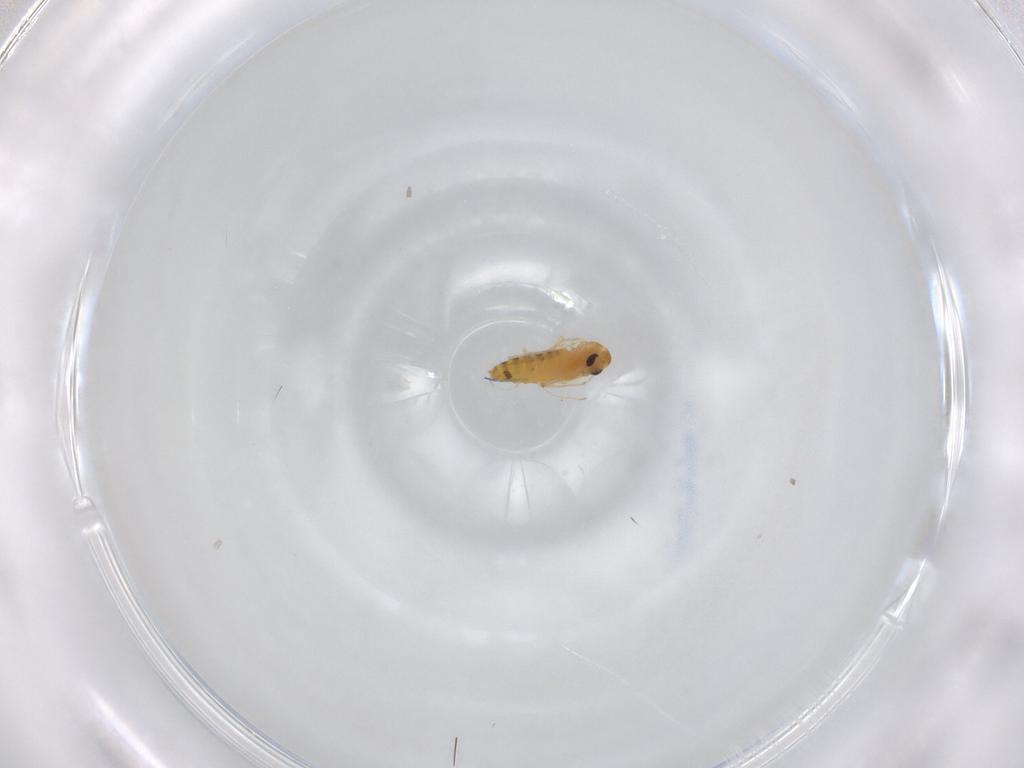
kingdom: Animalia
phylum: Arthropoda
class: Insecta
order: Diptera
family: Chironomidae
